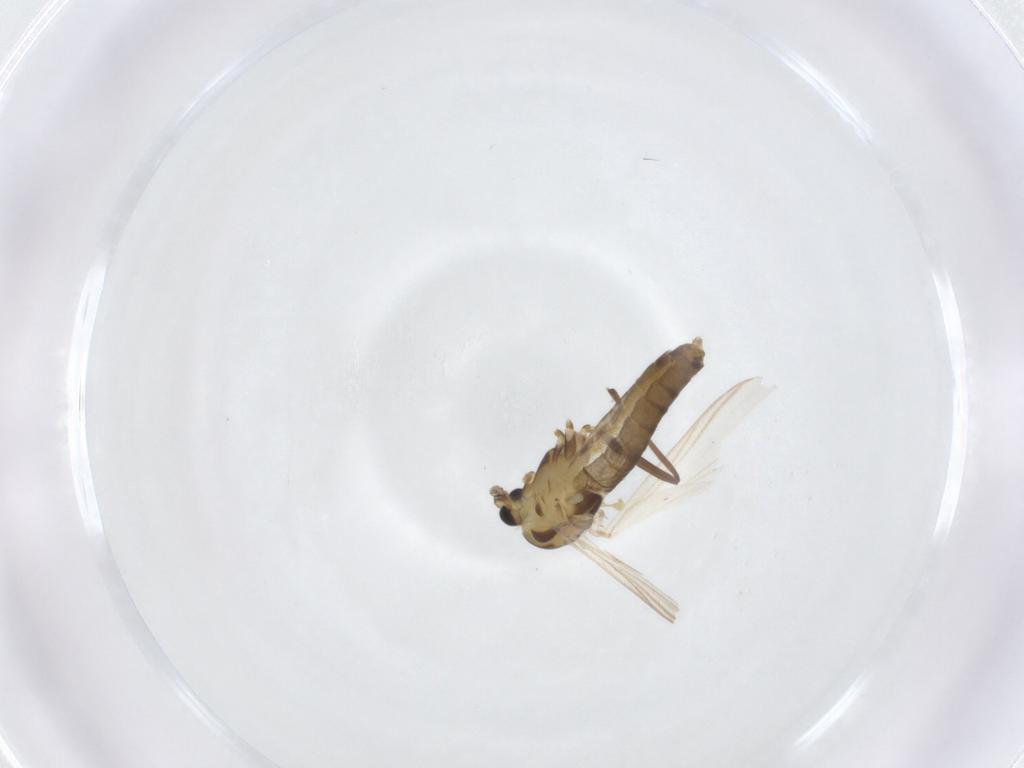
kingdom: Animalia
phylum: Arthropoda
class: Insecta
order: Diptera
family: Chironomidae
